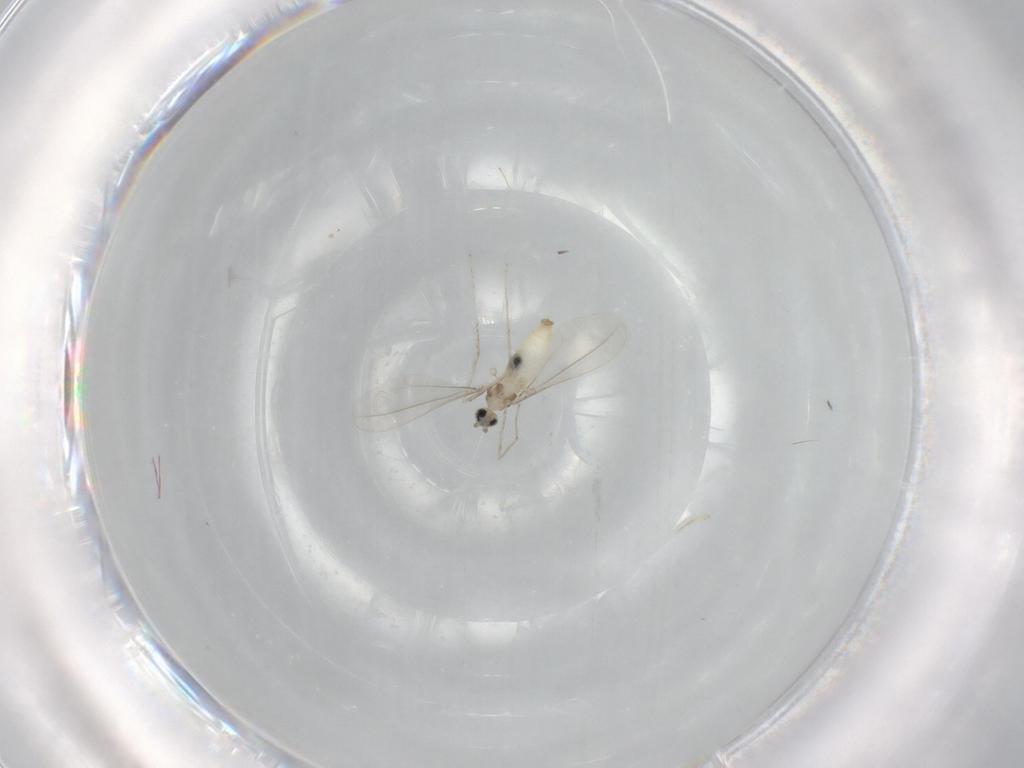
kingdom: Animalia
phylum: Arthropoda
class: Insecta
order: Diptera
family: Cecidomyiidae
